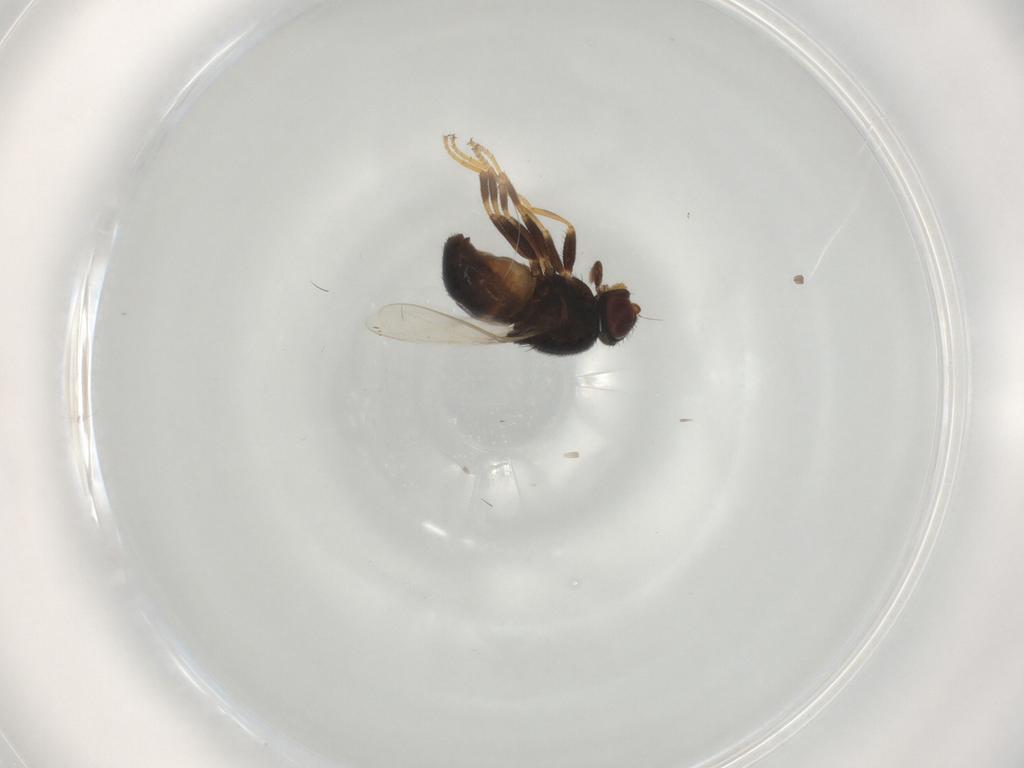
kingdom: Animalia
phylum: Arthropoda
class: Insecta
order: Diptera
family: Chloropidae
